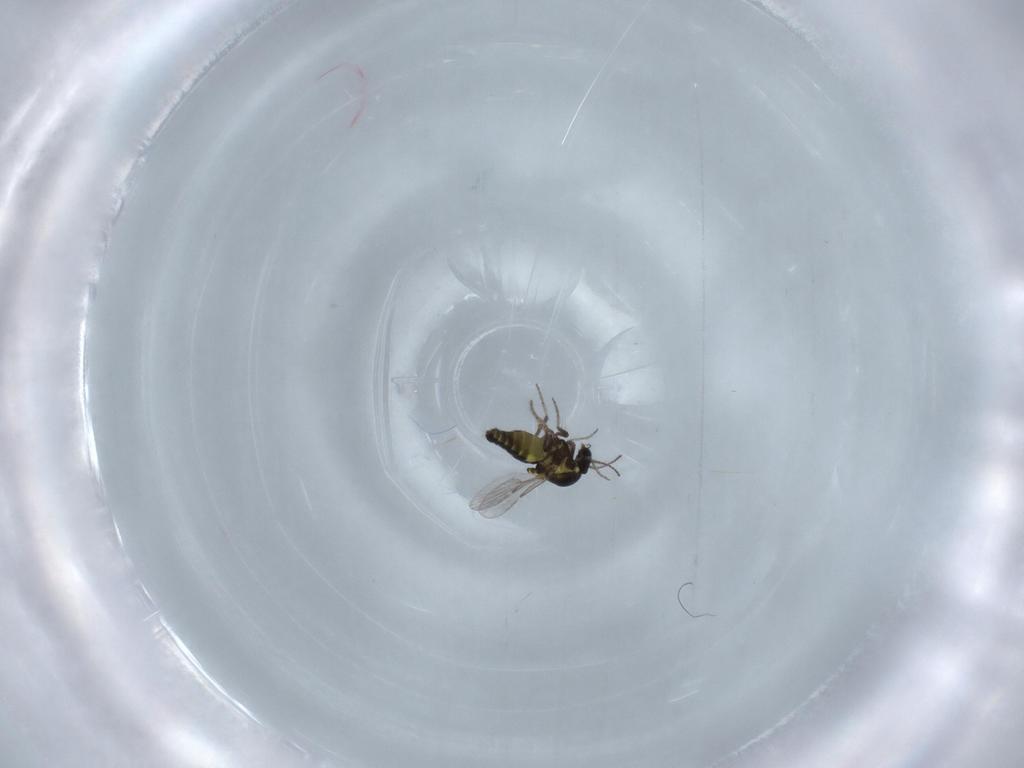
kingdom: Animalia
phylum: Arthropoda
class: Insecta
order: Diptera
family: Ceratopogonidae
